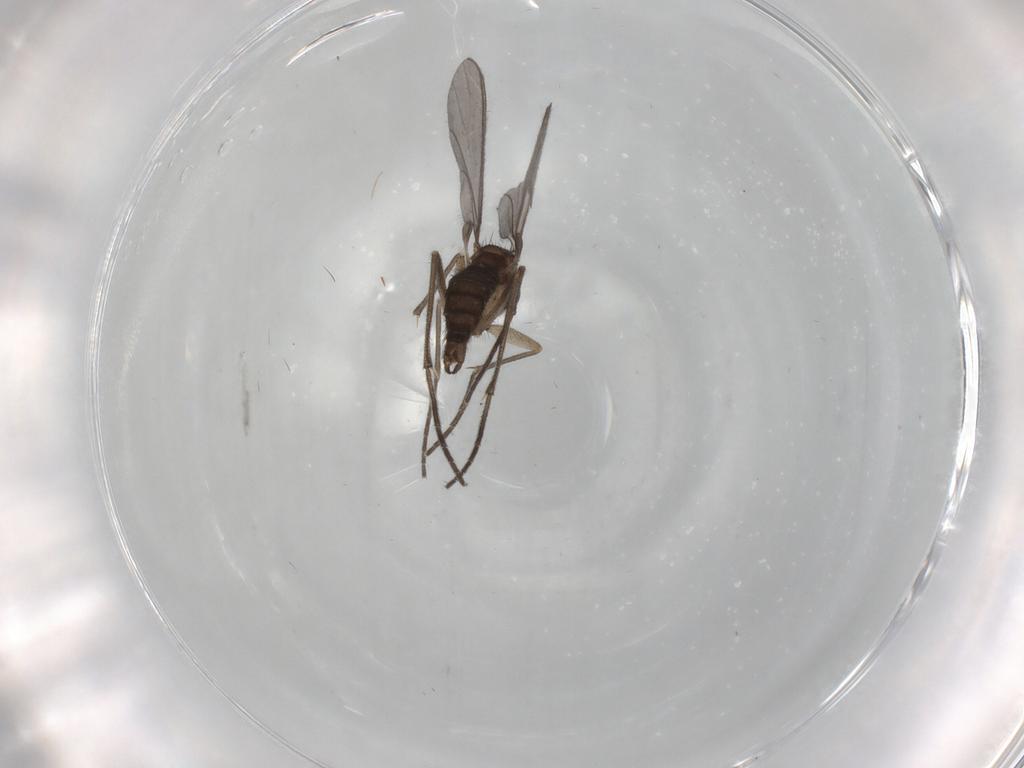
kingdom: Animalia
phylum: Arthropoda
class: Insecta
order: Diptera
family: Sciaridae
